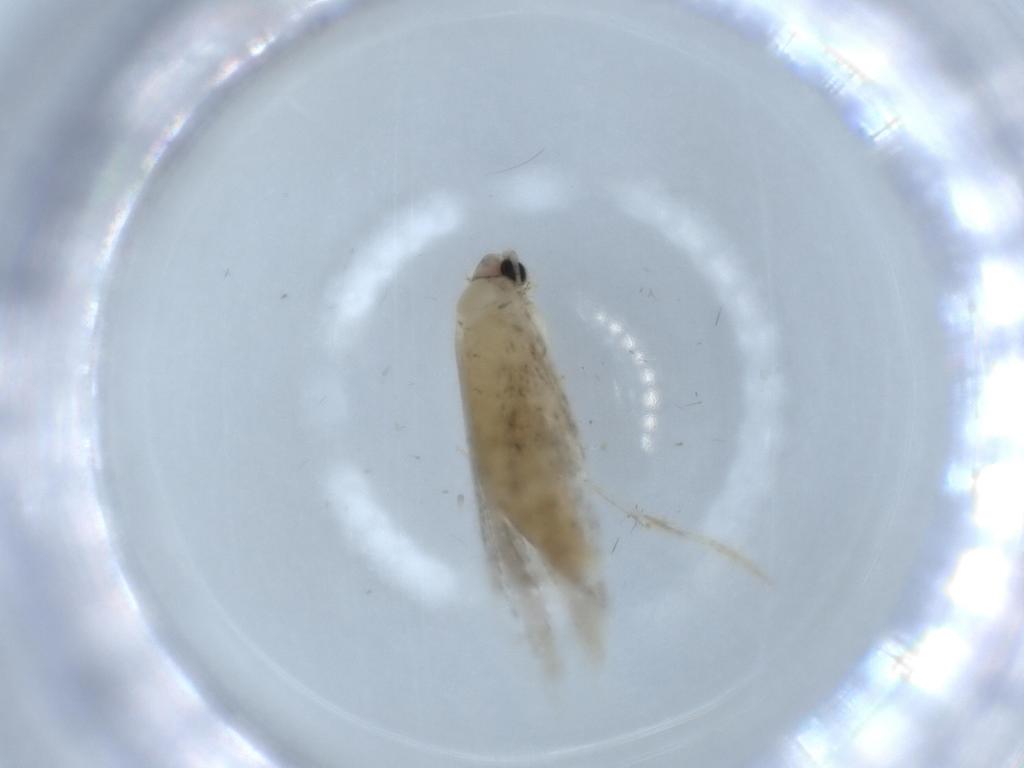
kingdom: Animalia
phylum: Arthropoda
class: Insecta
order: Lepidoptera
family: Tineidae
